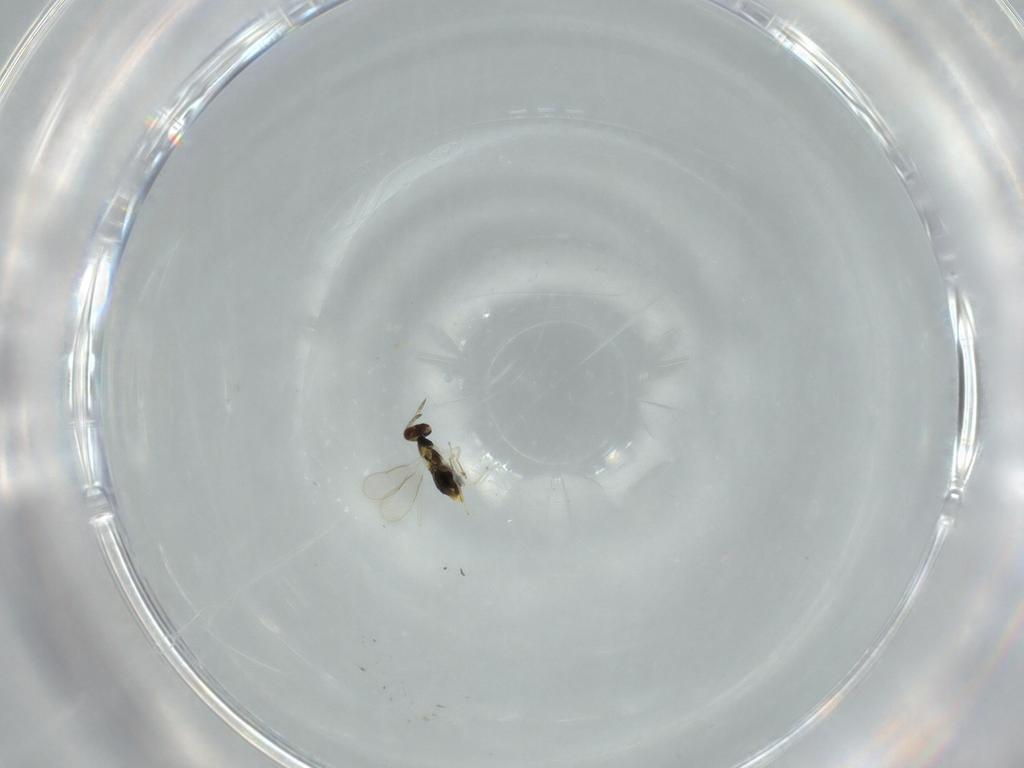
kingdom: Animalia
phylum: Arthropoda
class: Insecta
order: Hymenoptera
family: Aphelinidae
